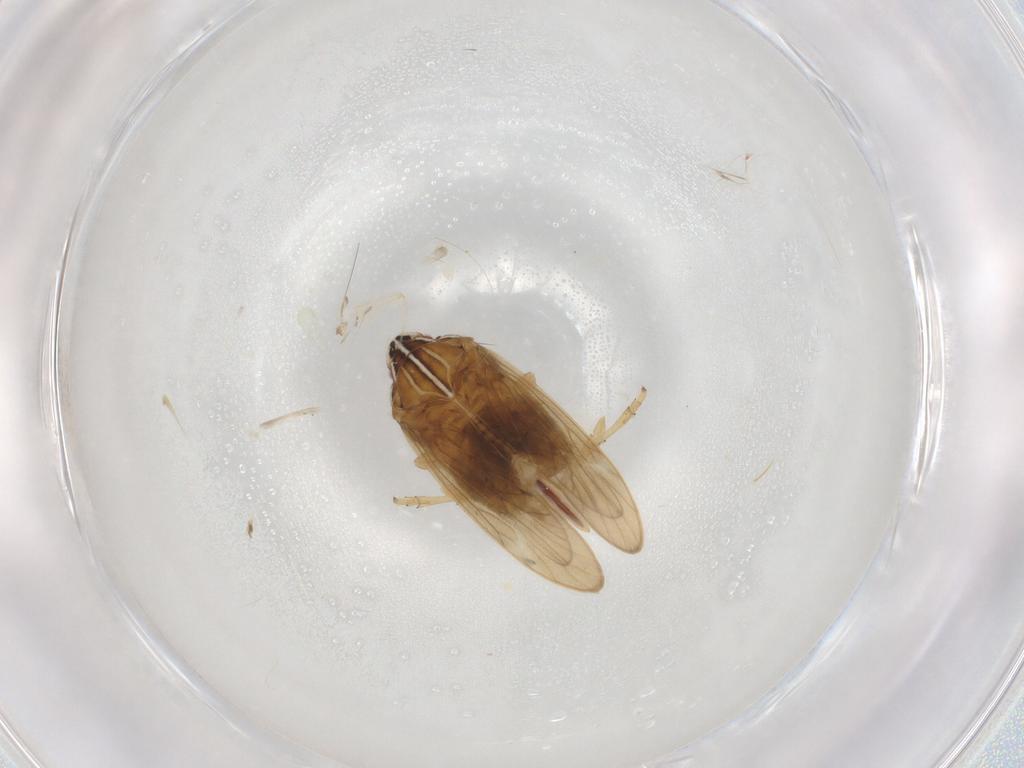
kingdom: Animalia
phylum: Arthropoda
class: Insecta
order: Hemiptera
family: Delphacidae
